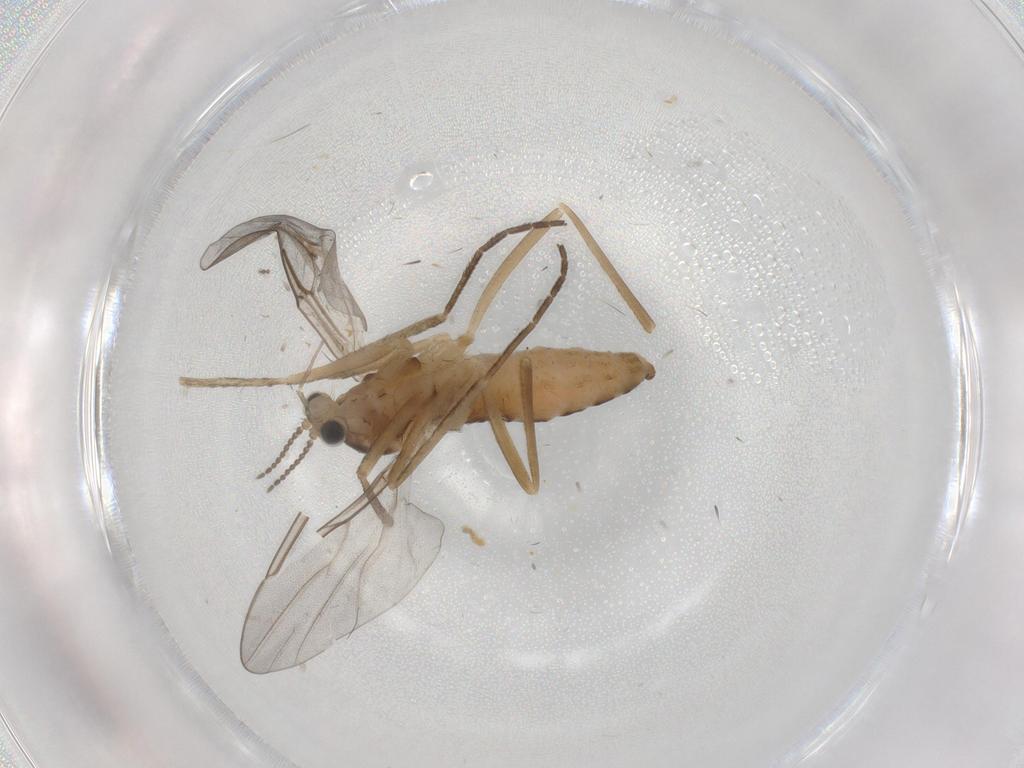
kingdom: Animalia
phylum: Arthropoda
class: Insecta
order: Diptera
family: Cecidomyiidae
